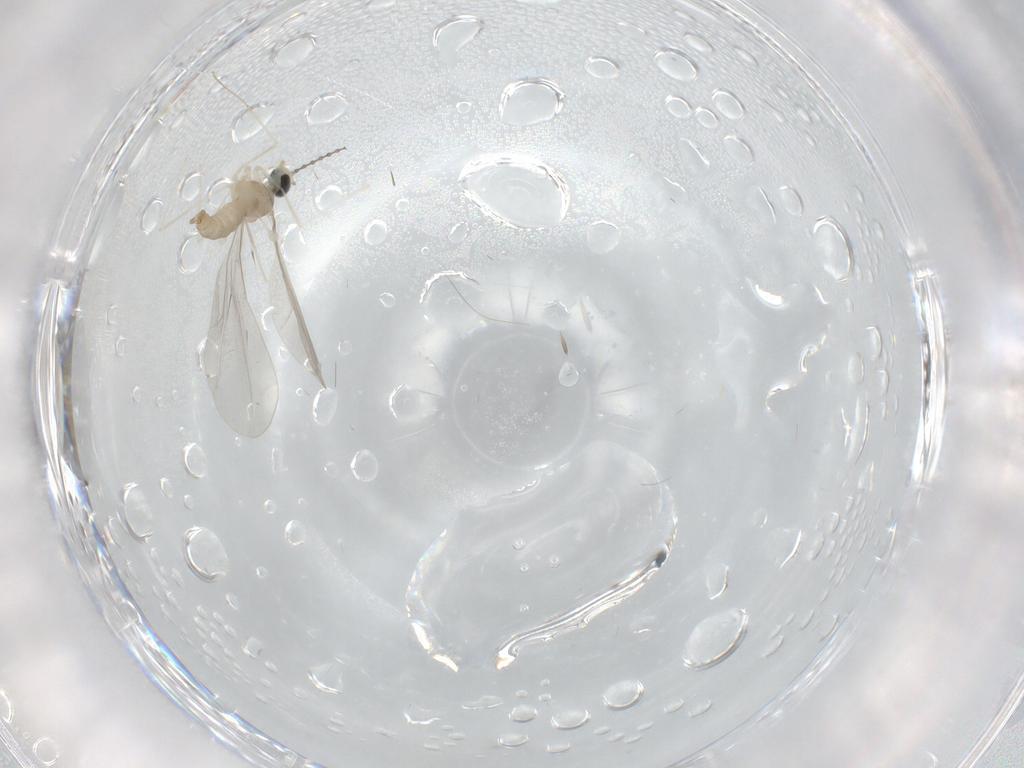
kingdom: Animalia
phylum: Arthropoda
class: Insecta
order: Diptera
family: Cecidomyiidae
